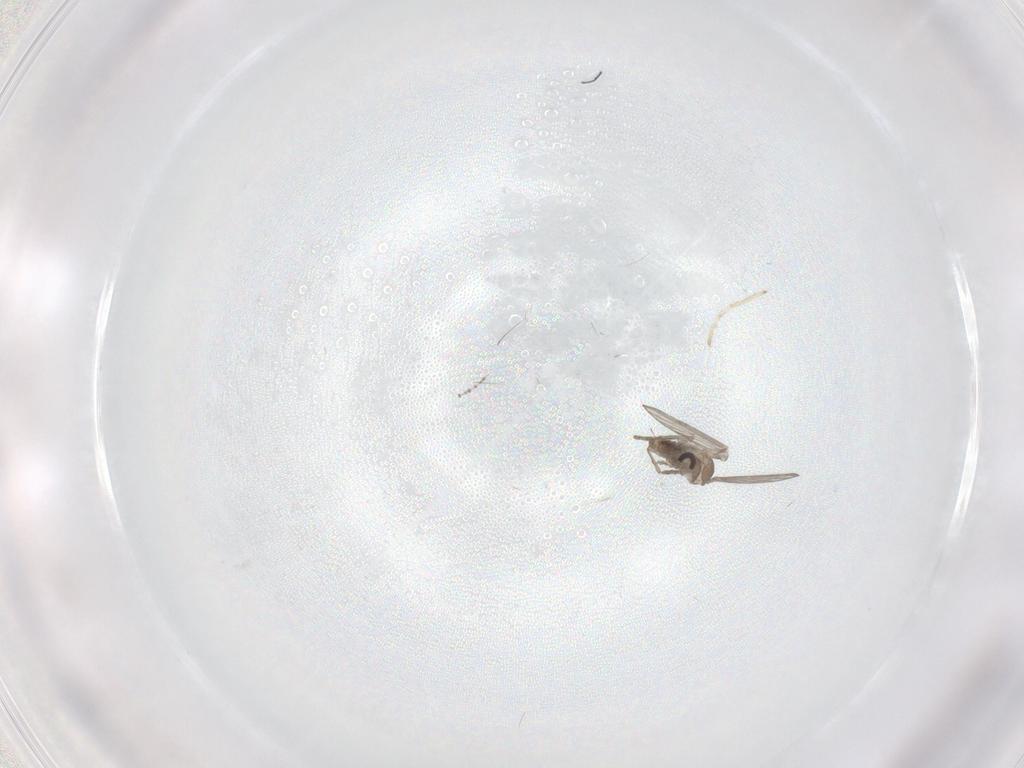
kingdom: Animalia
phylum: Arthropoda
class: Insecta
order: Diptera
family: Psychodidae
